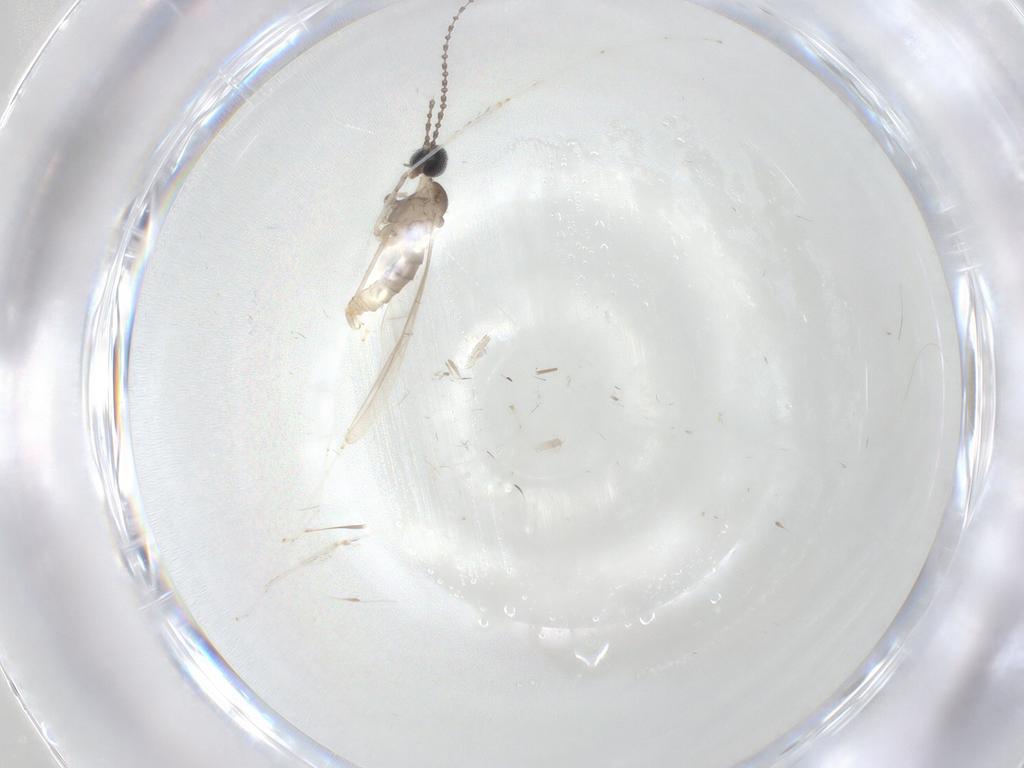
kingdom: Animalia
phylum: Arthropoda
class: Insecta
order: Diptera
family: Cecidomyiidae
